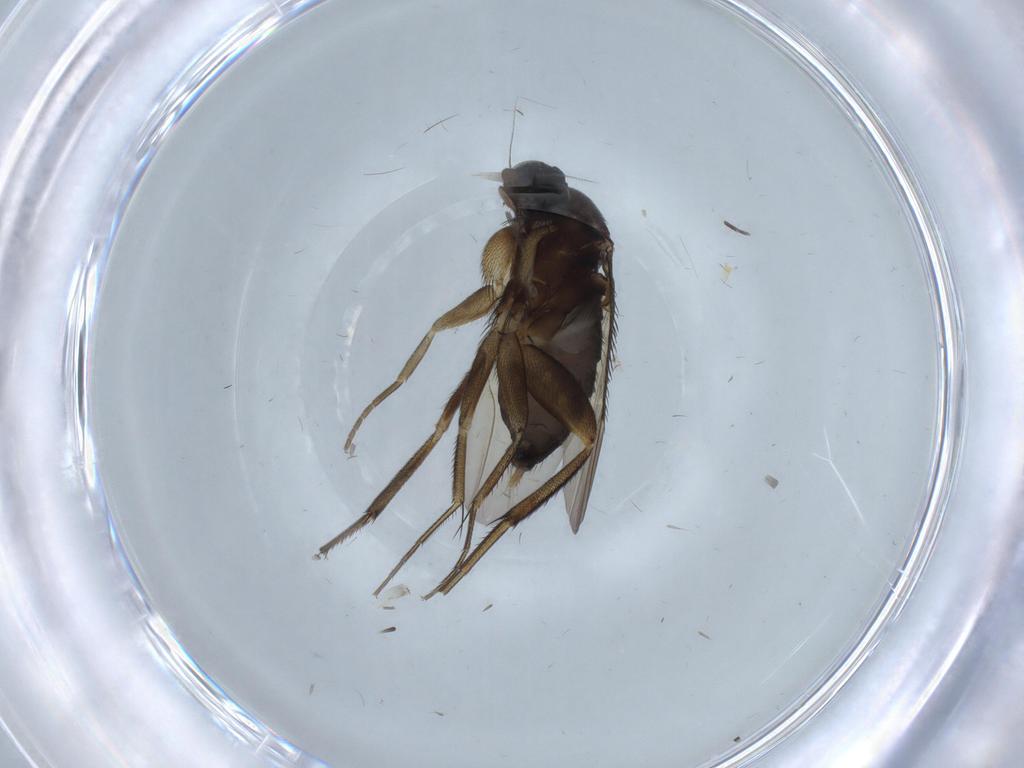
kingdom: Animalia
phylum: Arthropoda
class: Insecta
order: Diptera
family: Phoridae
